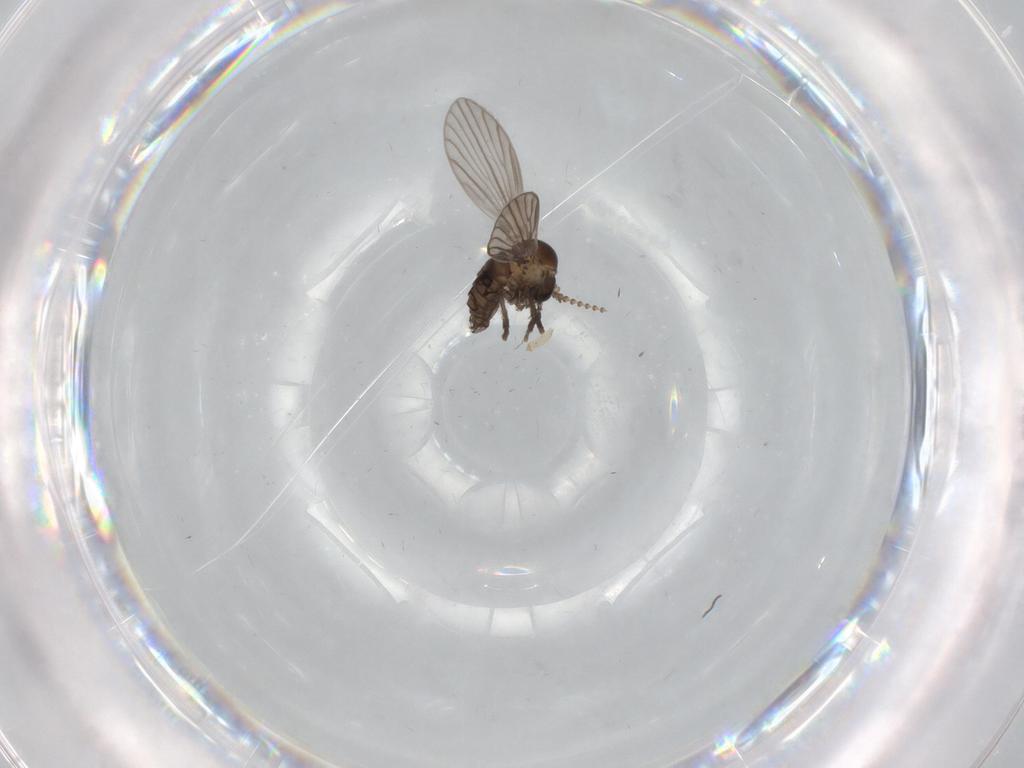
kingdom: Animalia
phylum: Arthropoda
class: Insecta
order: Diptera
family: Psychodidae
